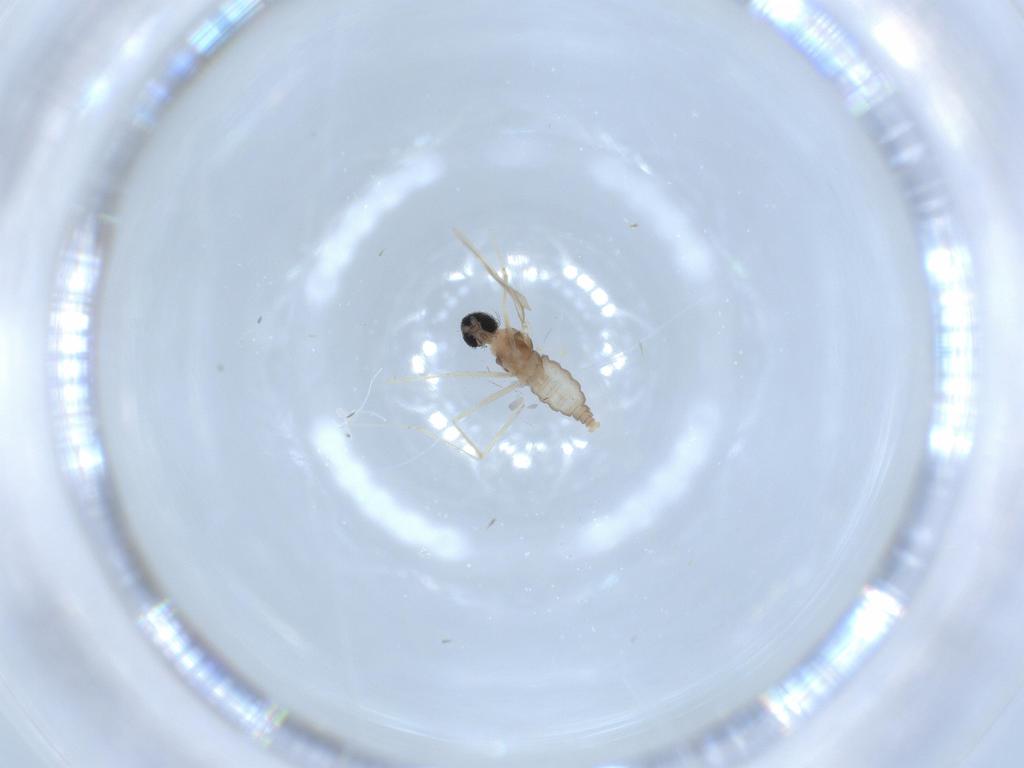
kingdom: Animalia
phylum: Arthropoda
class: Insecta
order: Diptera
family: Cecidomyiidae
